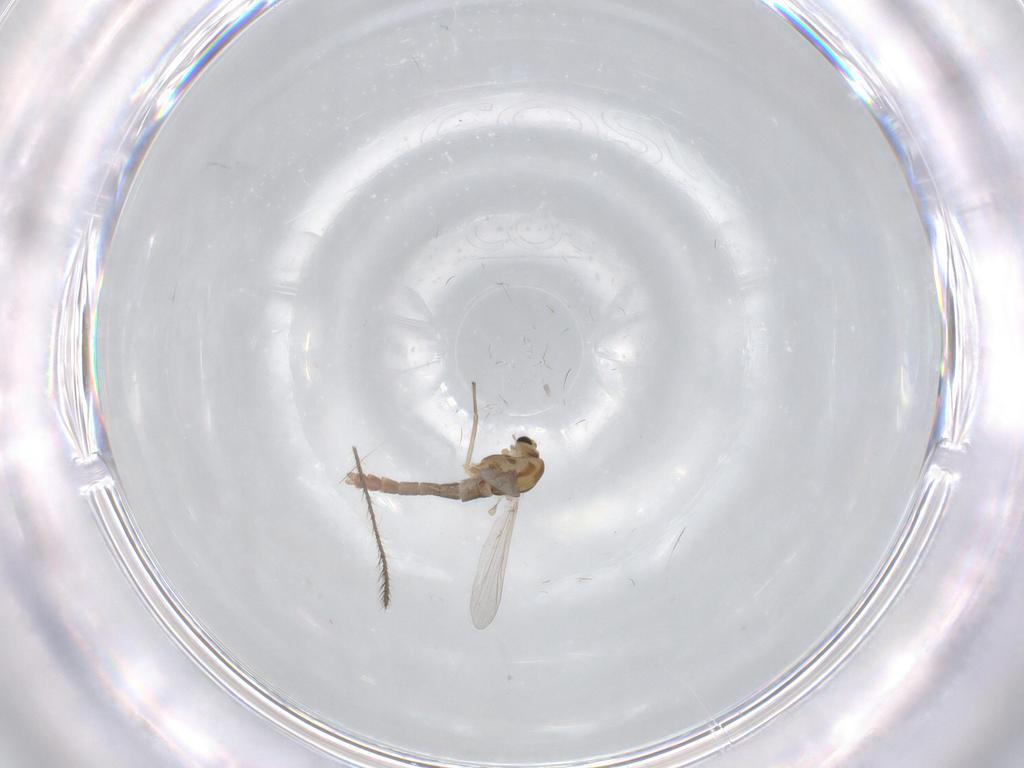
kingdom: Animalia
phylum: Arthropoda
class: Insecta
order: Diptera
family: Chironomidae
